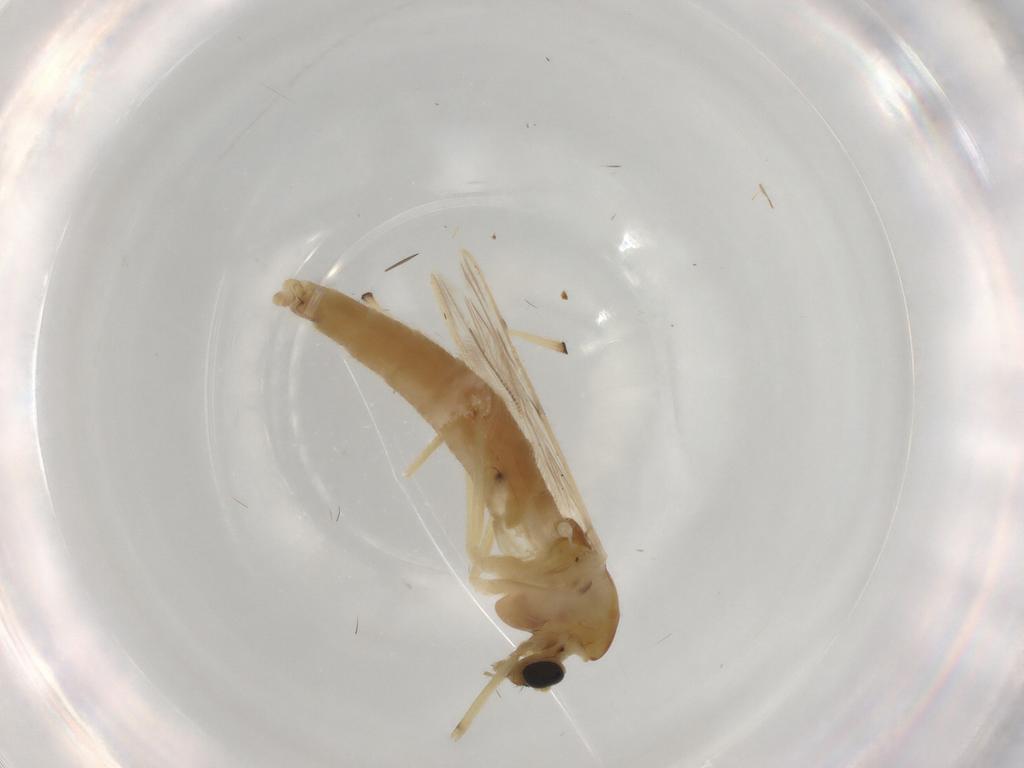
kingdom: Animalia
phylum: Arthropoda
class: Insecta
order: Diptera
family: Chironomidae
